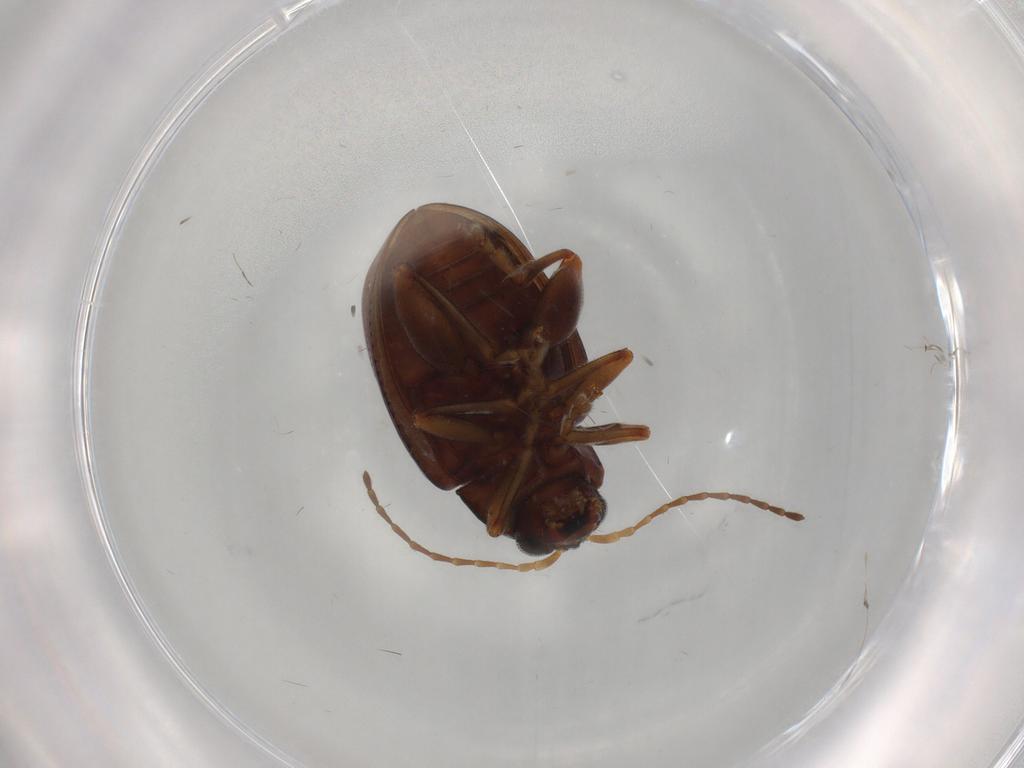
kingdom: Animalia
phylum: Arthropoda
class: Insecta
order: Coleoptera
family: Chrysomelidae
